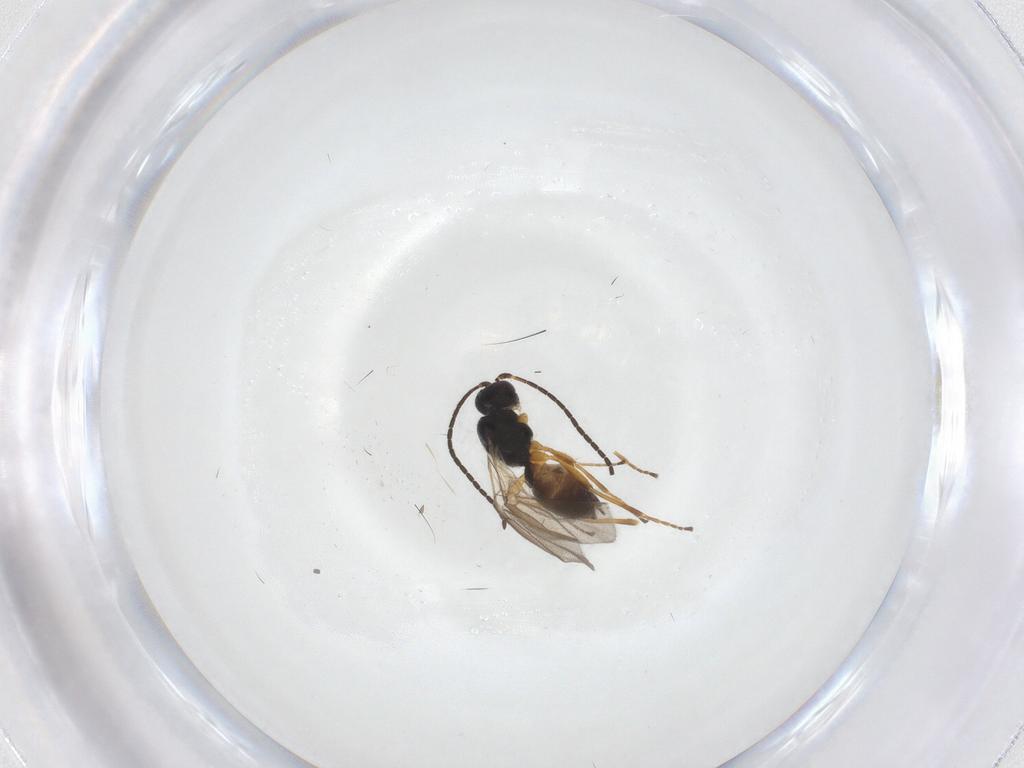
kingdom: Animalia
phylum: Arthropoda
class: Insecta
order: Hymenoptera
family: Braconidae
